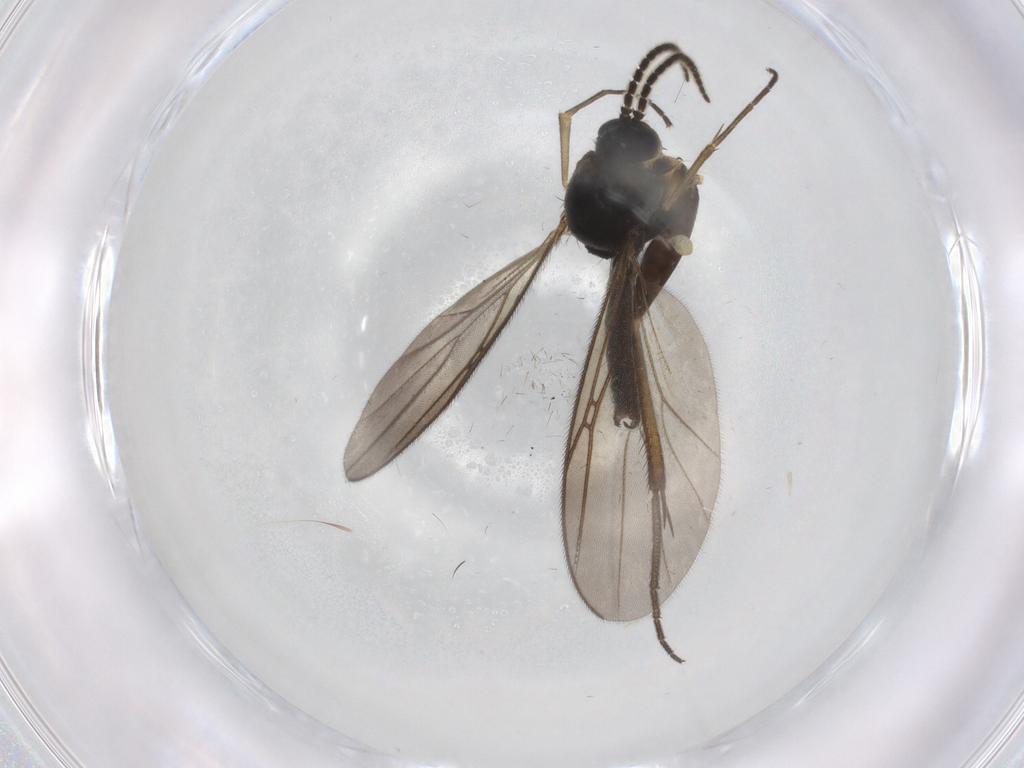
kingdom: Animalia
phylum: Arthropoda
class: Insecta
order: Diptera
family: Mycetophilidae
